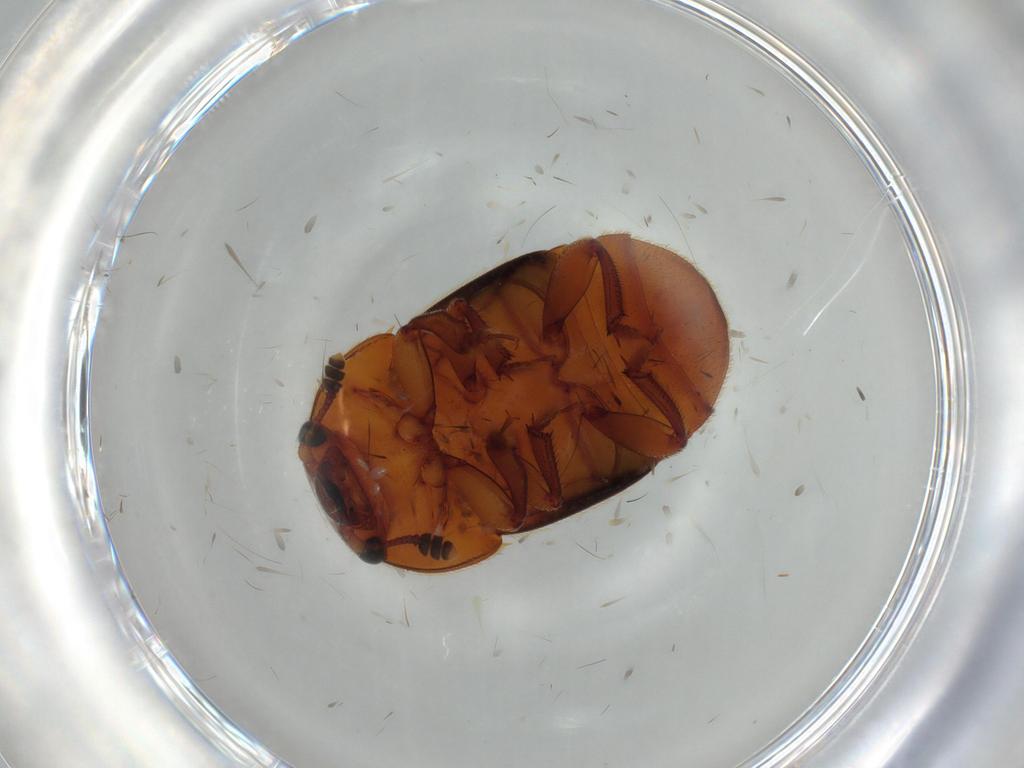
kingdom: Animalia
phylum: Arthropoda
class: Insecta
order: Coleoptera
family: Nitidulidae
